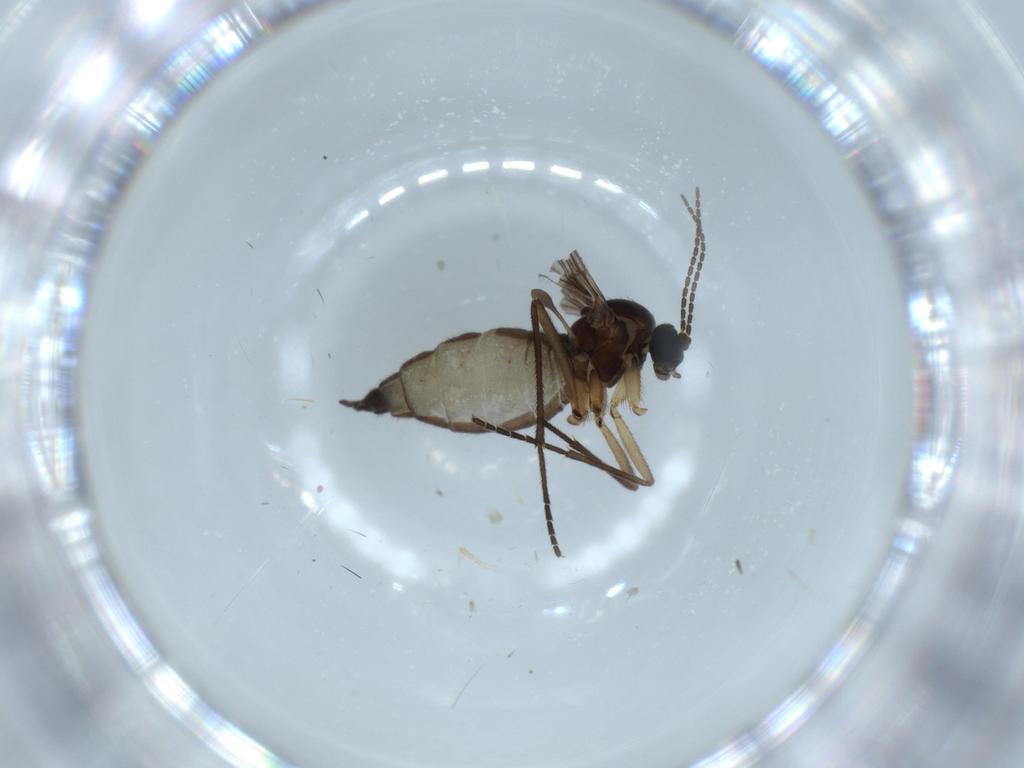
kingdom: Animalia
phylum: Arthropoda
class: Insecta
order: Diptera
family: Sciaridae
